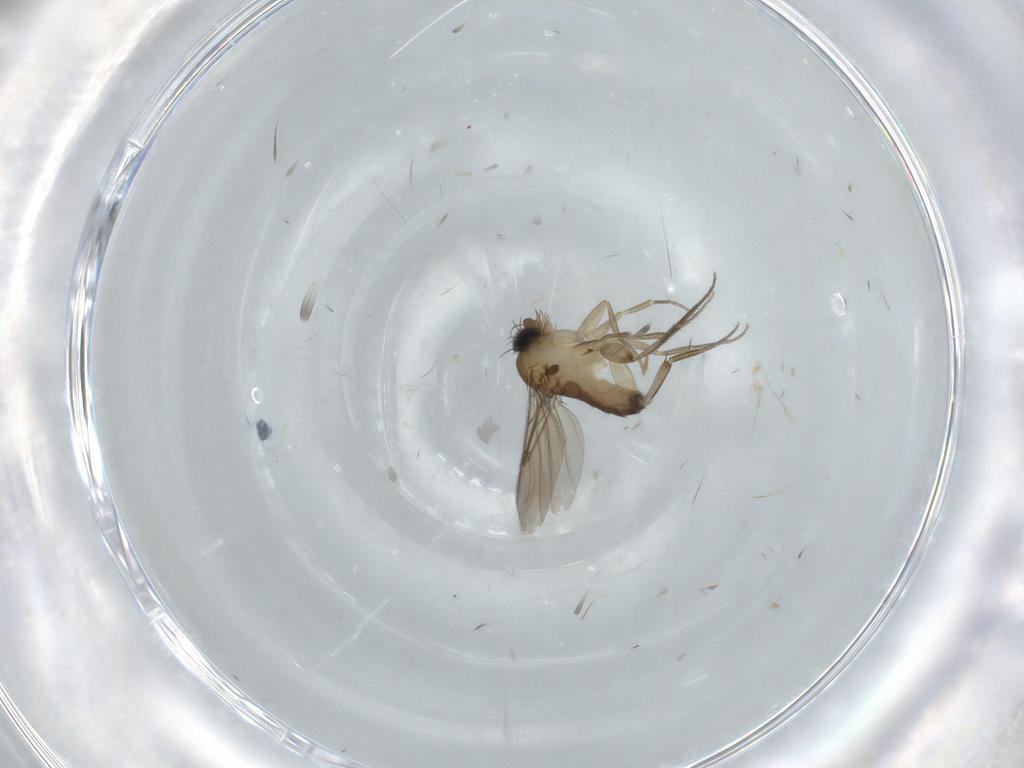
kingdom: Animalia
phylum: Arthropoda
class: Insecta
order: Diptera
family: Phoridae
